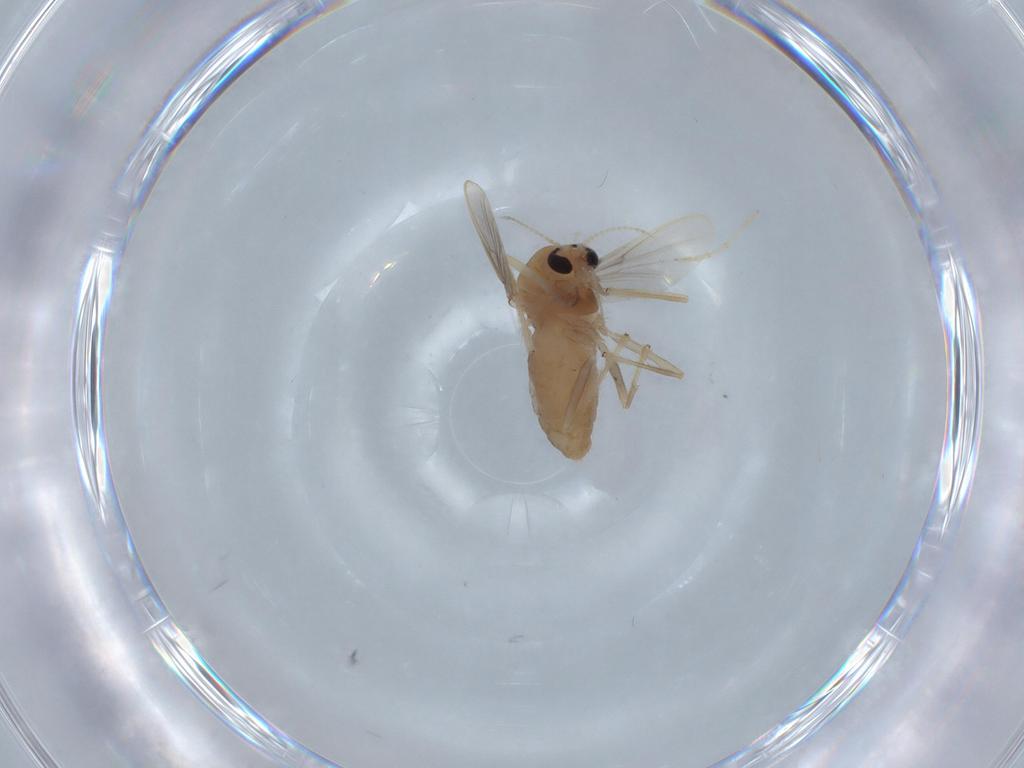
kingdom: Animalia
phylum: Arthropoda
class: Insecta
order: Diptera
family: Chironomidae
